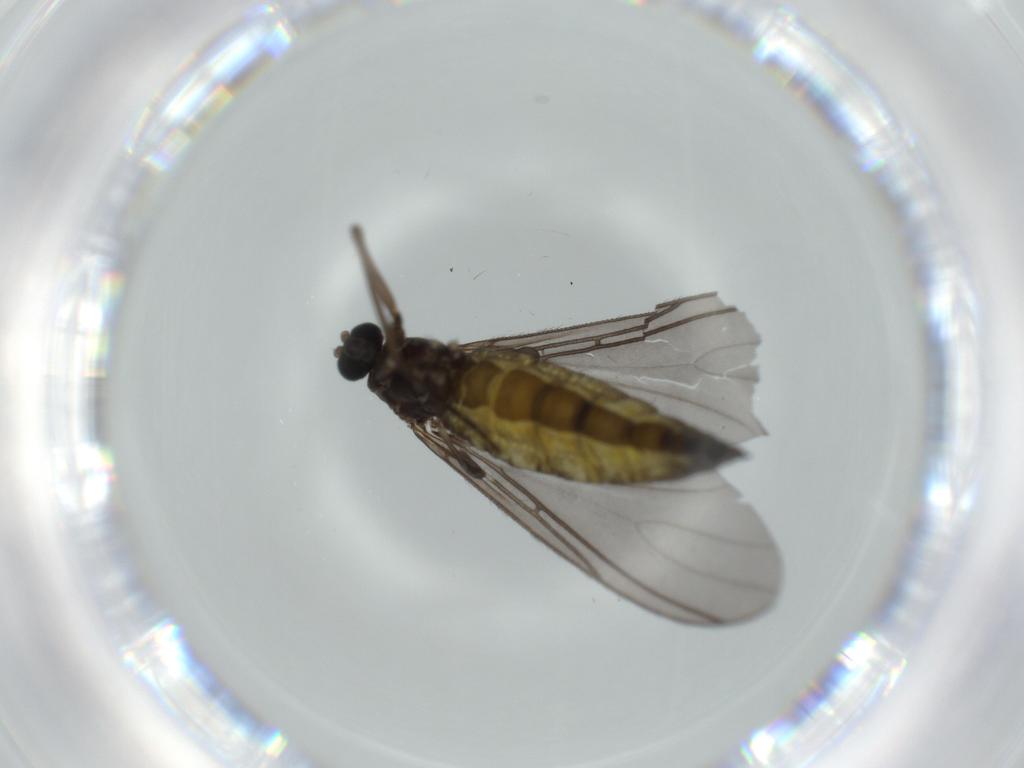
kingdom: Animalia
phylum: Arthropoda
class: Insecta
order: Diptera
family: Sciaridae
